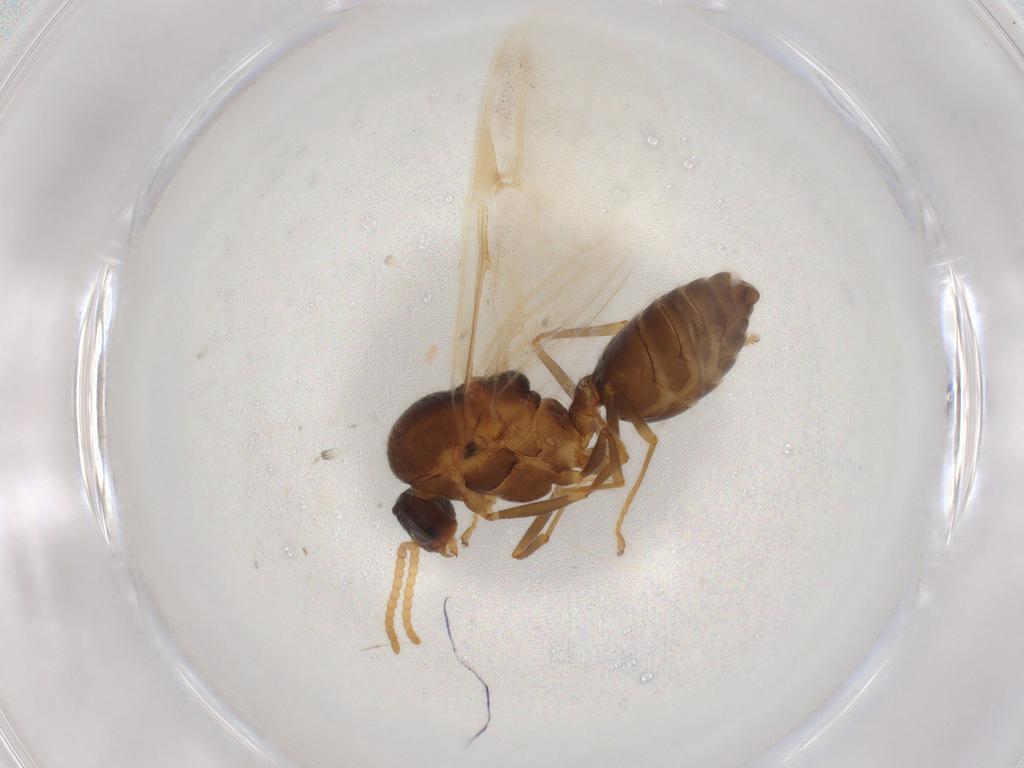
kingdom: Animalia
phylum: Arthropoda
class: Insecta
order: Hymenoptera
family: Formicidae
